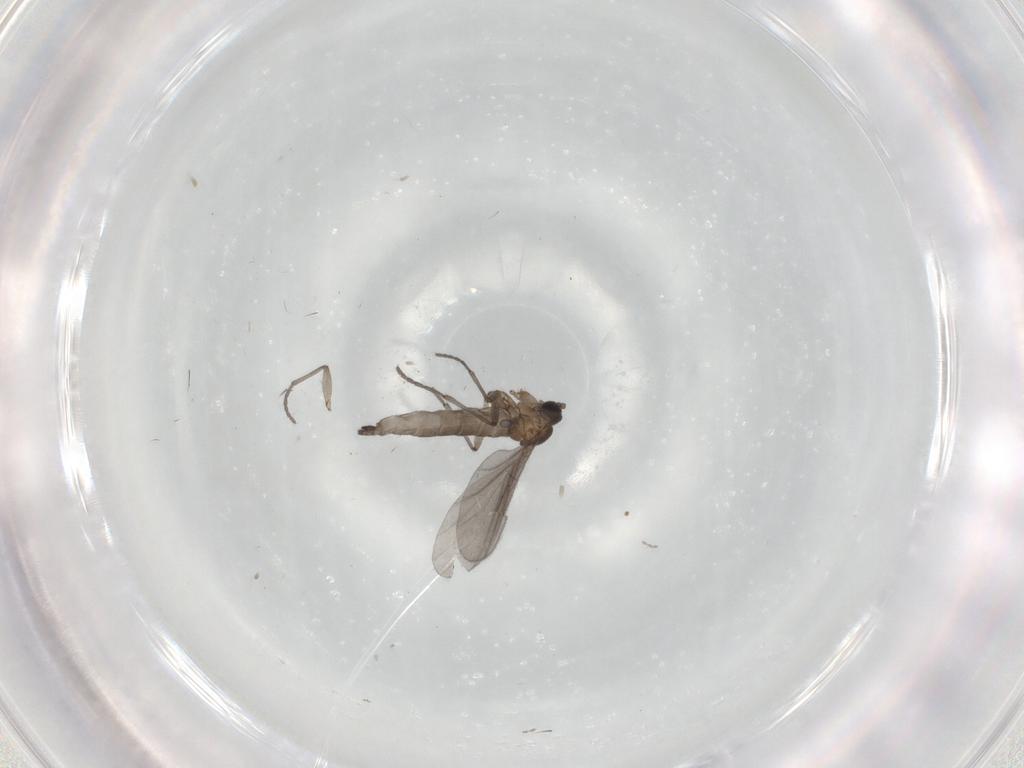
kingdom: Animalia
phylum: Arthropoda
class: Insecta
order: Diptera
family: Sciaridae
